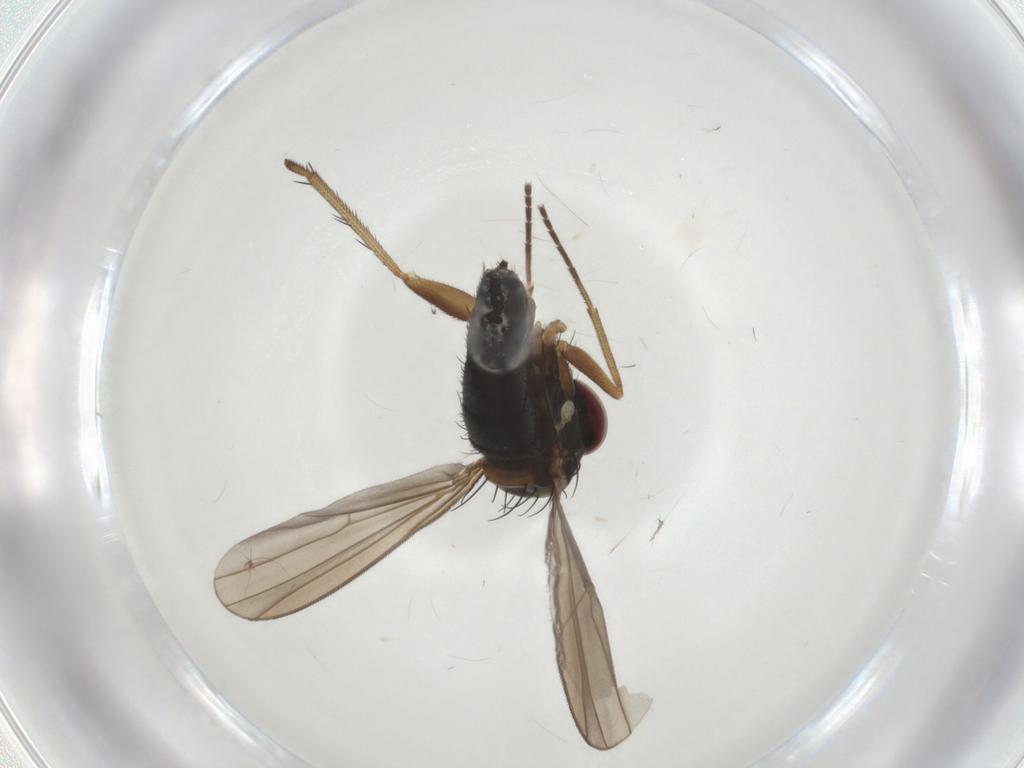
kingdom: Animalia
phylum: Arthropoda
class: Insecta
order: Diptera
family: Dolichopodidae
